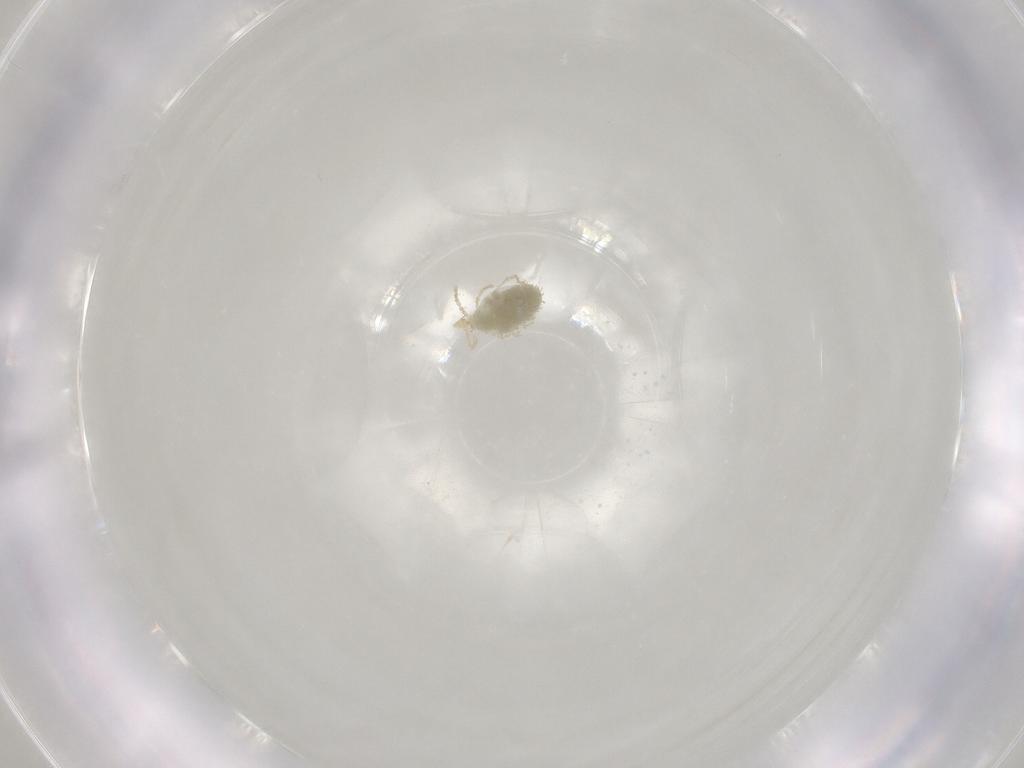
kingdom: Animalia
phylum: Arthropoda
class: Arachnida
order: Trombidiformes
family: Erythraeidae
